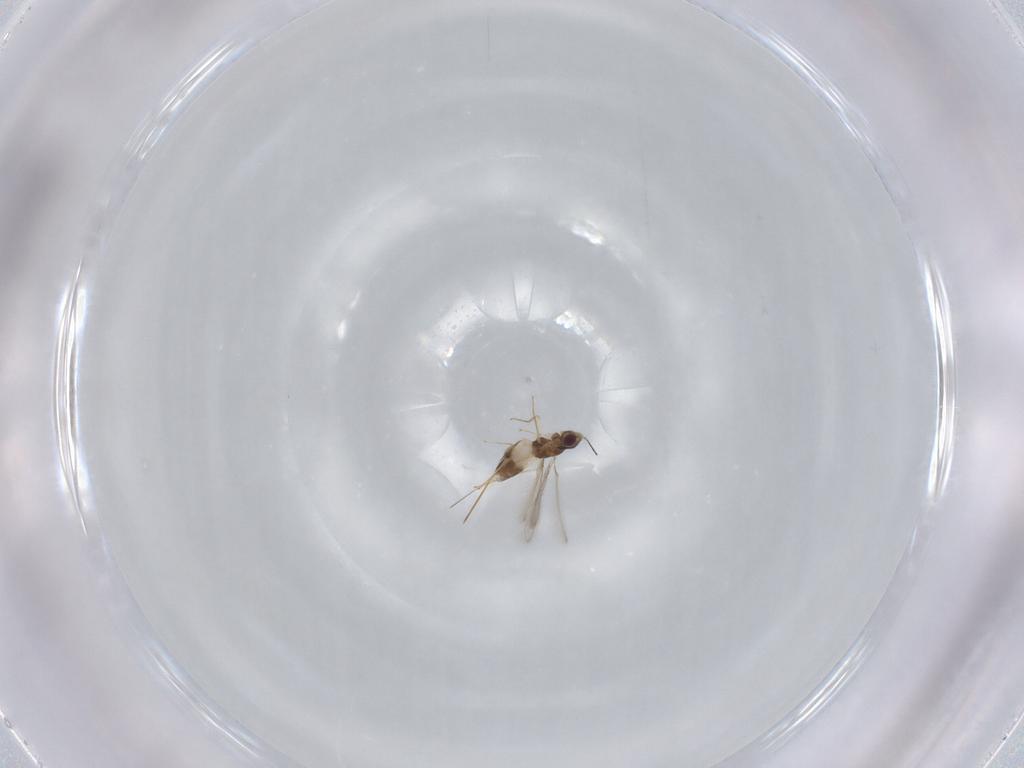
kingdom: Animalia
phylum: Arthropoda
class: Insecta
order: Hymenoptera
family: Mymaridae
